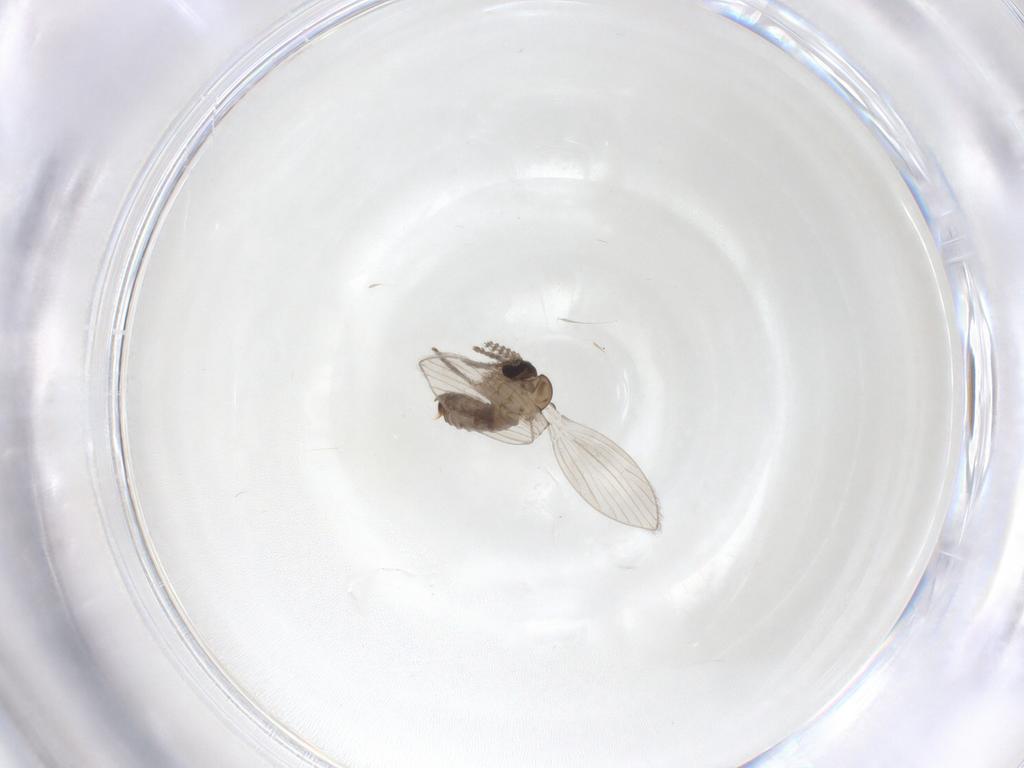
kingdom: Animalia
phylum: Arthropoda
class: Insecta
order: Diptera
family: Psychodidae
